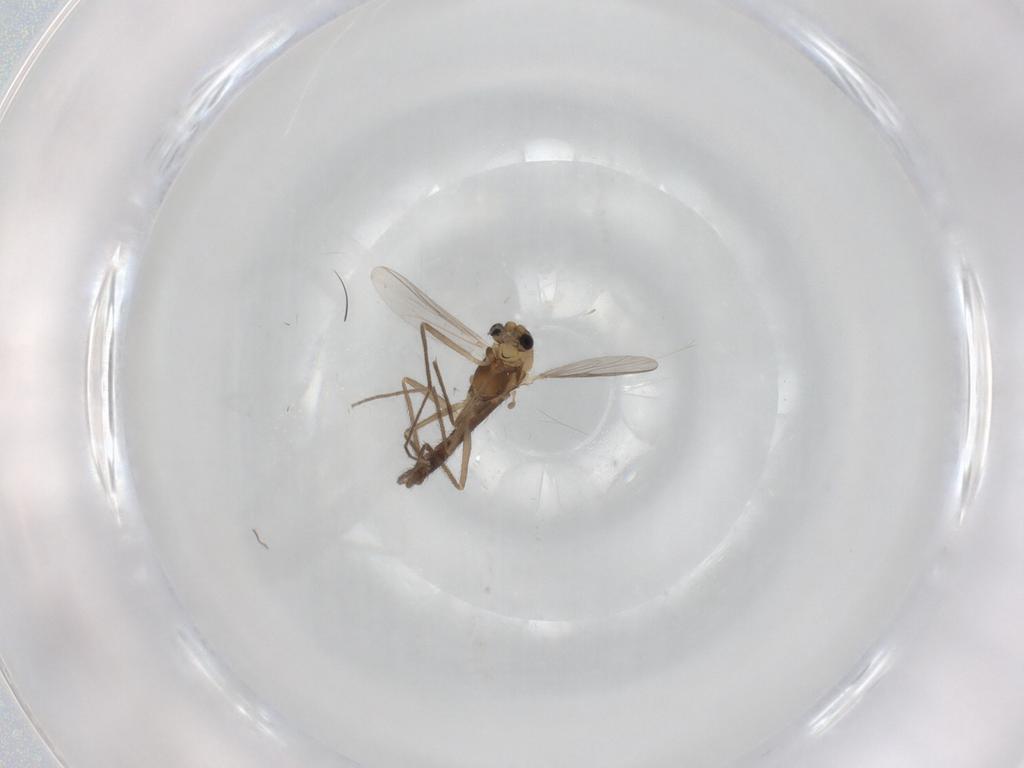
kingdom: Animalia
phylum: Arthropoda
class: Insecta
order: Diptera
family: Chironomidae
